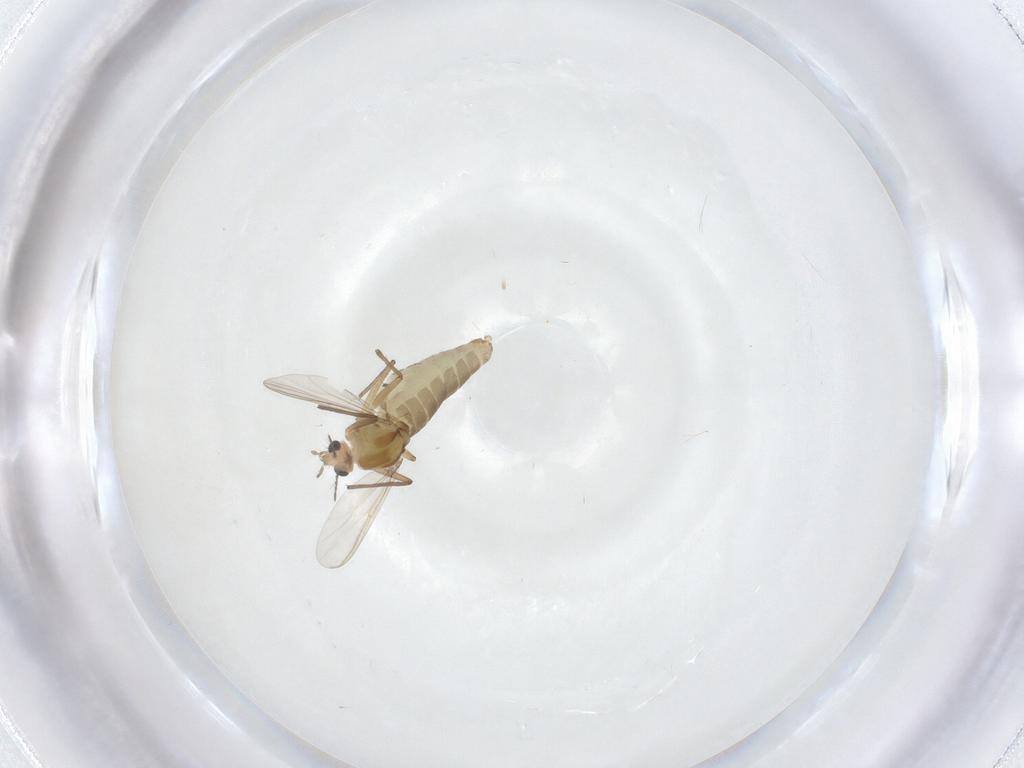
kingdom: Animalia
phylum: Arthropoda
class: Insecta
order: Diptera
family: Chironomidae
